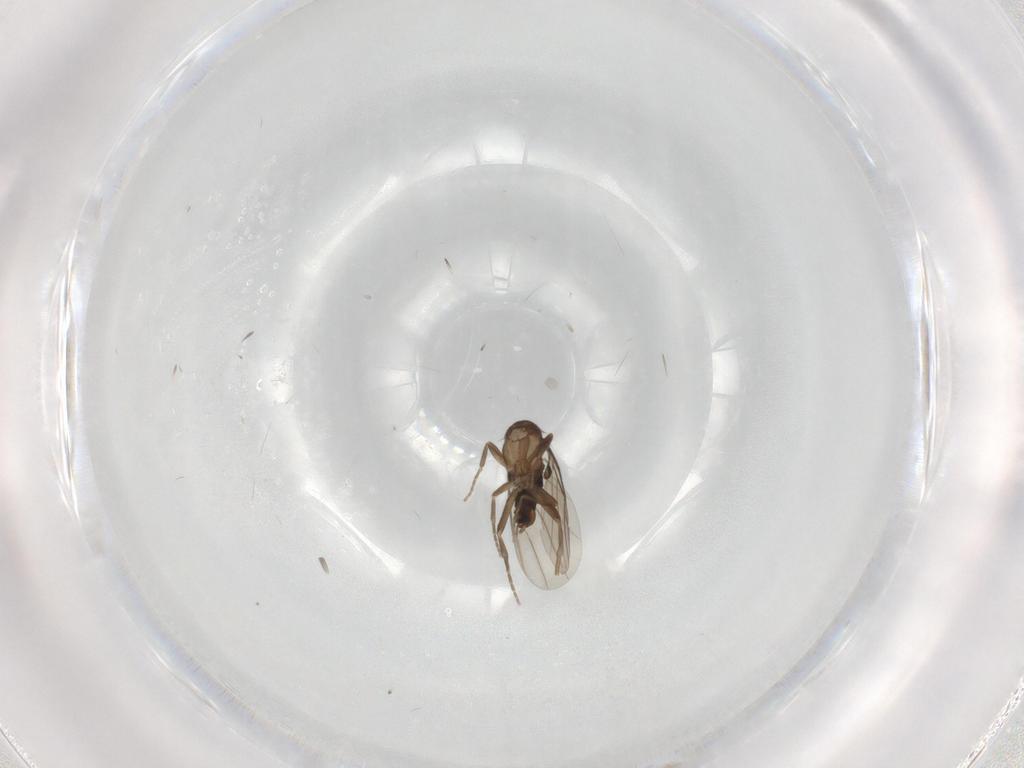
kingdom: Animalia
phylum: Arthropoda
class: Insecta
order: Diptera
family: Phoridae
